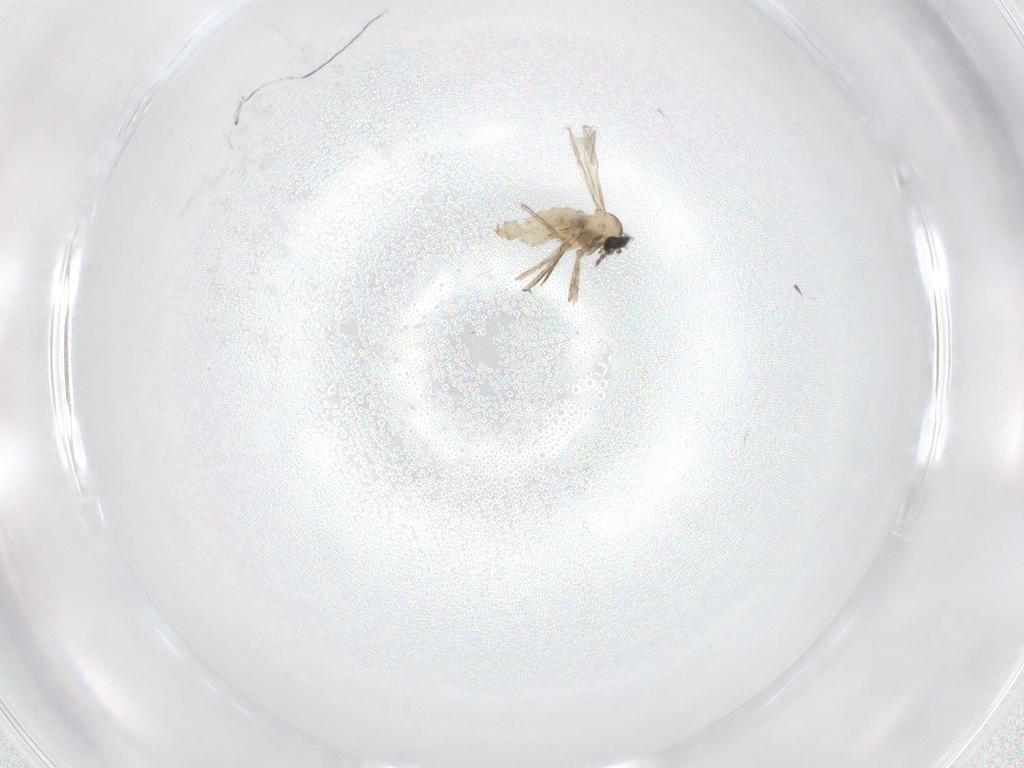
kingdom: Animalia
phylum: Arthropoda
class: Insecta
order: Diptera
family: Cecidomyiidae
